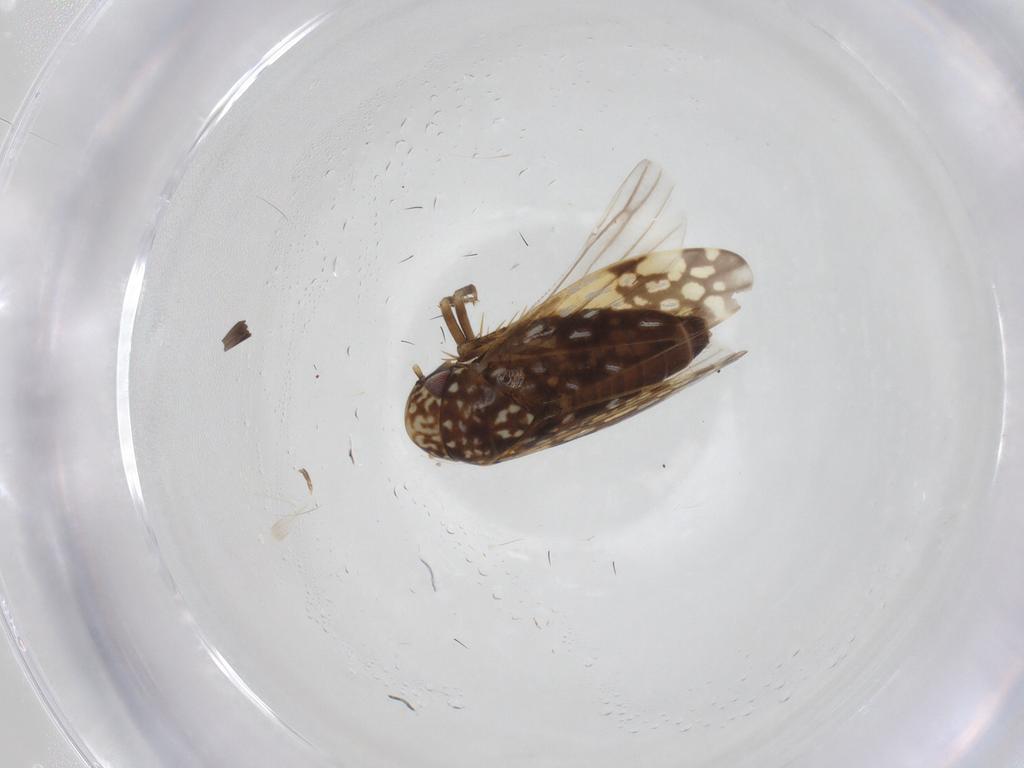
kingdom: Animalia
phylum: Arthropoda
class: Insecta
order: Hemiptera
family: Cicadellidae
